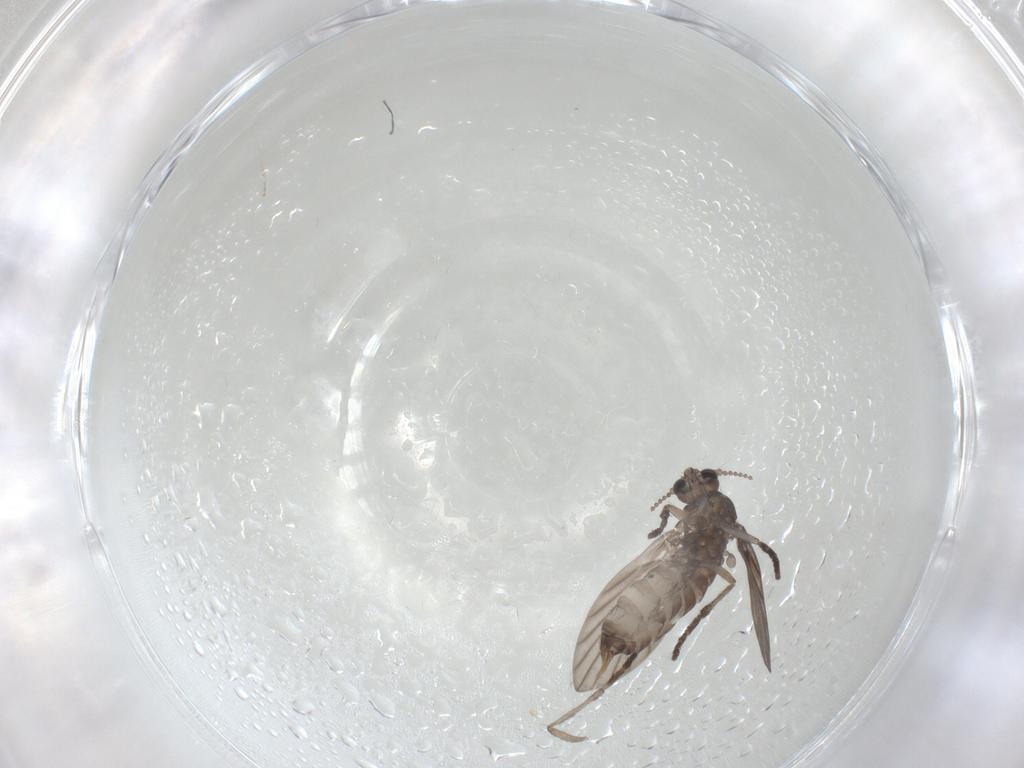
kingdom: Animalia
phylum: Arthropoda
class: Insecta
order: Diptera
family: Psychodidae
